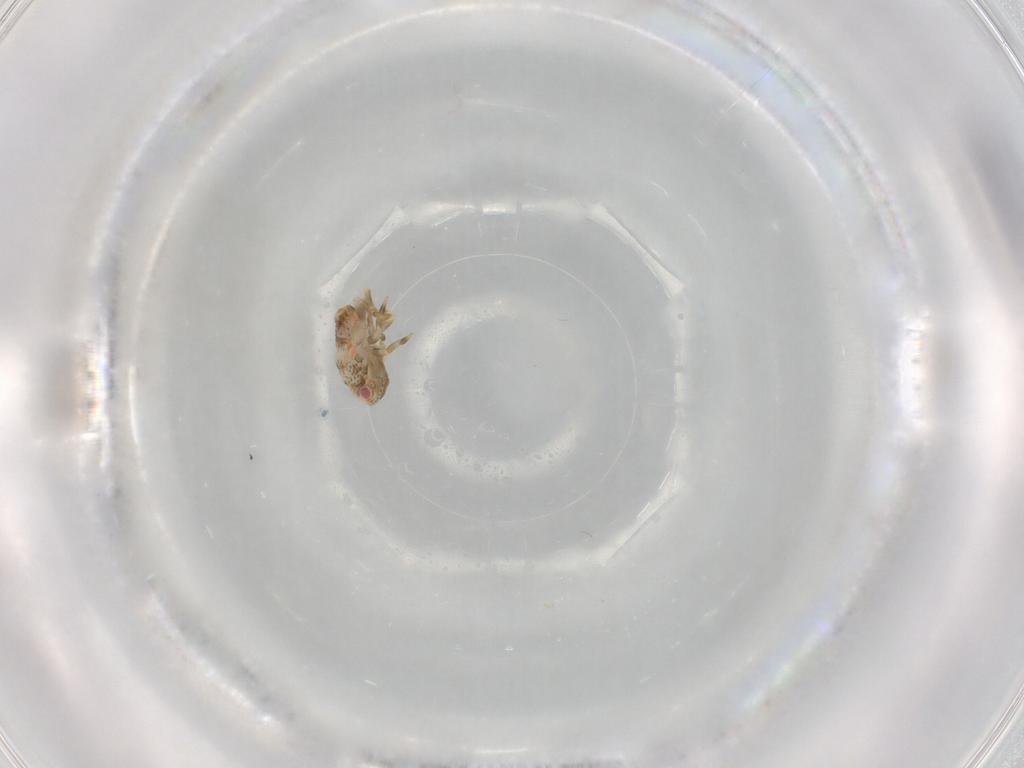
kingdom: Animalia
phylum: Arthropoda
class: Insecta
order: Hemiptera
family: Flatidae
